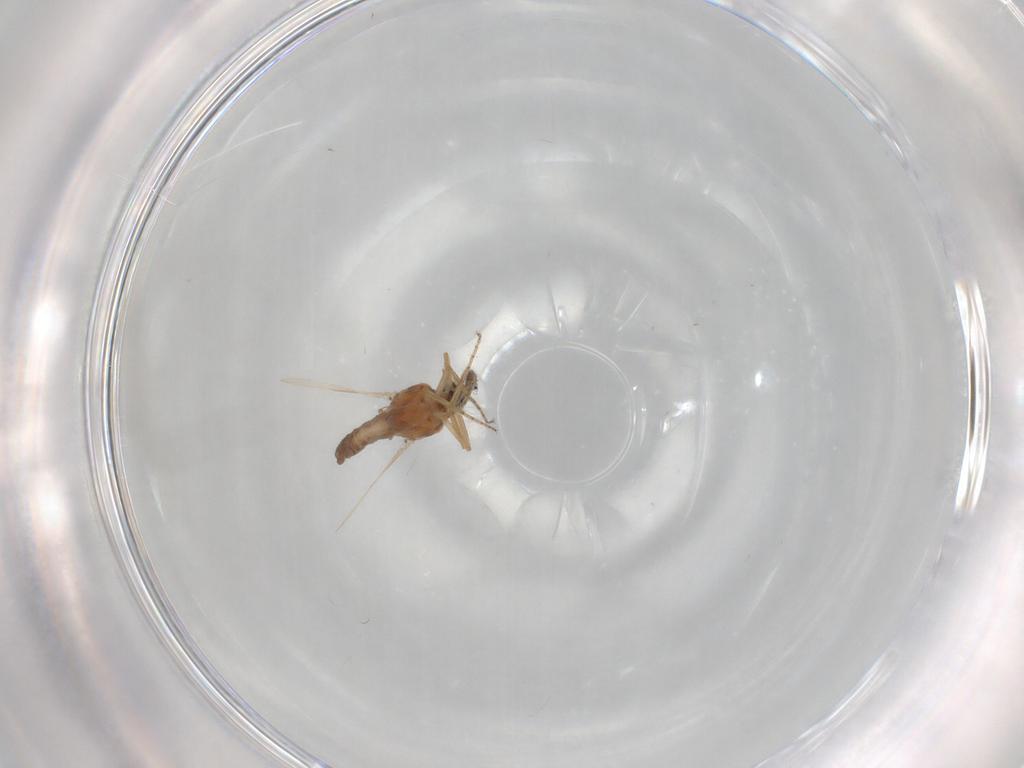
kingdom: Animalia
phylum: Arthropoda
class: Insecta
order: Diptera
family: Ceratopogonidae
